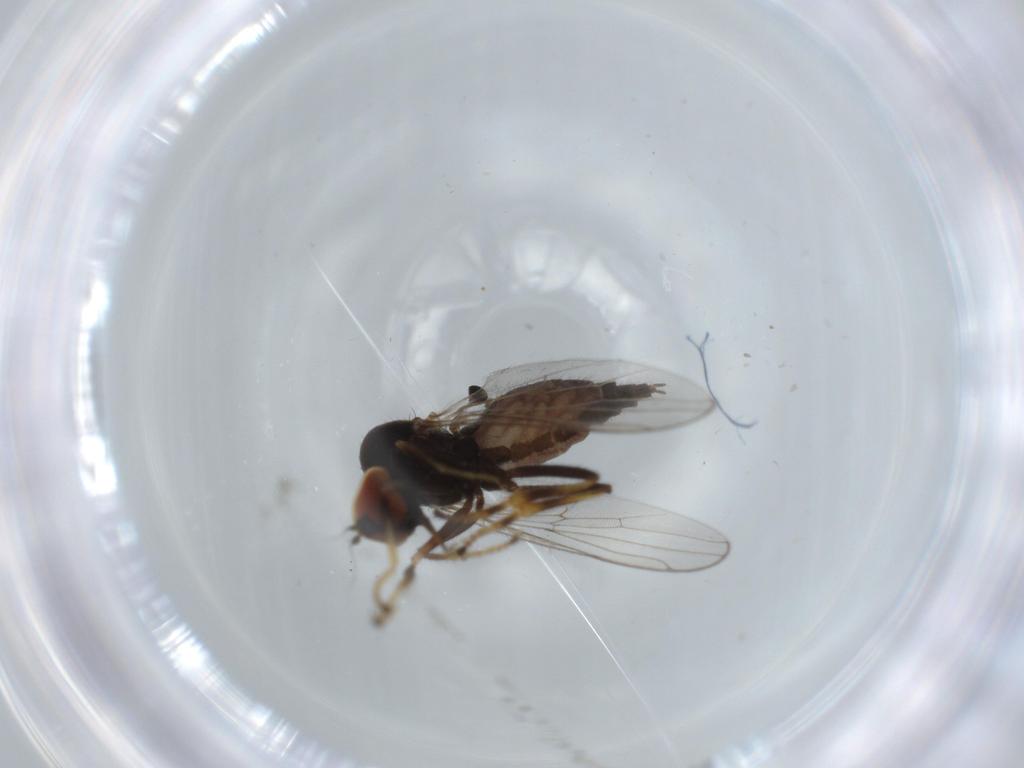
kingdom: Animalia
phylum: Arthropoda
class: Insecta
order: Diptera
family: Hybotidae
